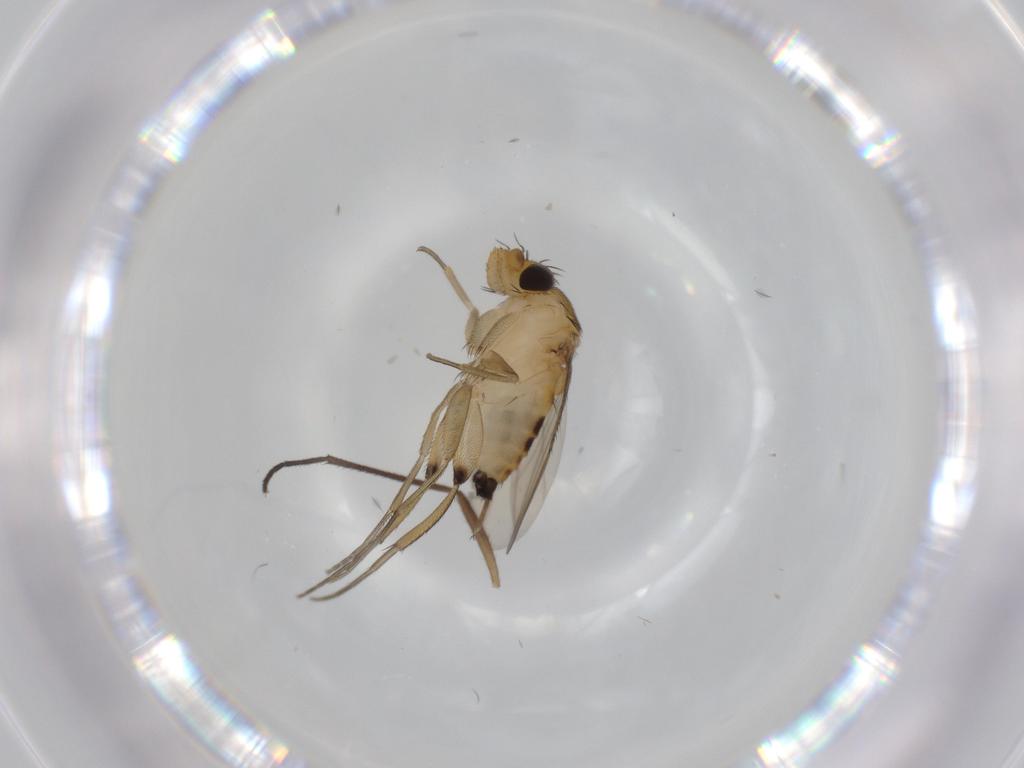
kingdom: Animalia
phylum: Arthropoda
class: Insecta
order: Diptera
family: Phoridae
